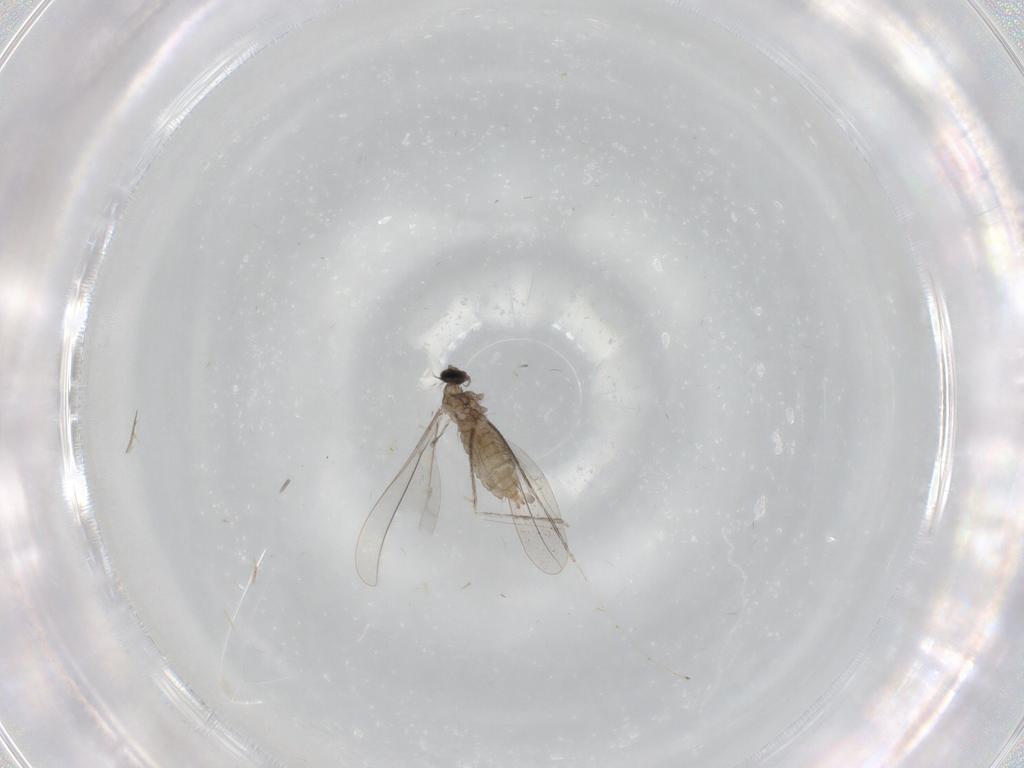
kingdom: Animalia
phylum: Arthropoda
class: Insecta
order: Diptera
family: Cecidomyiidae
